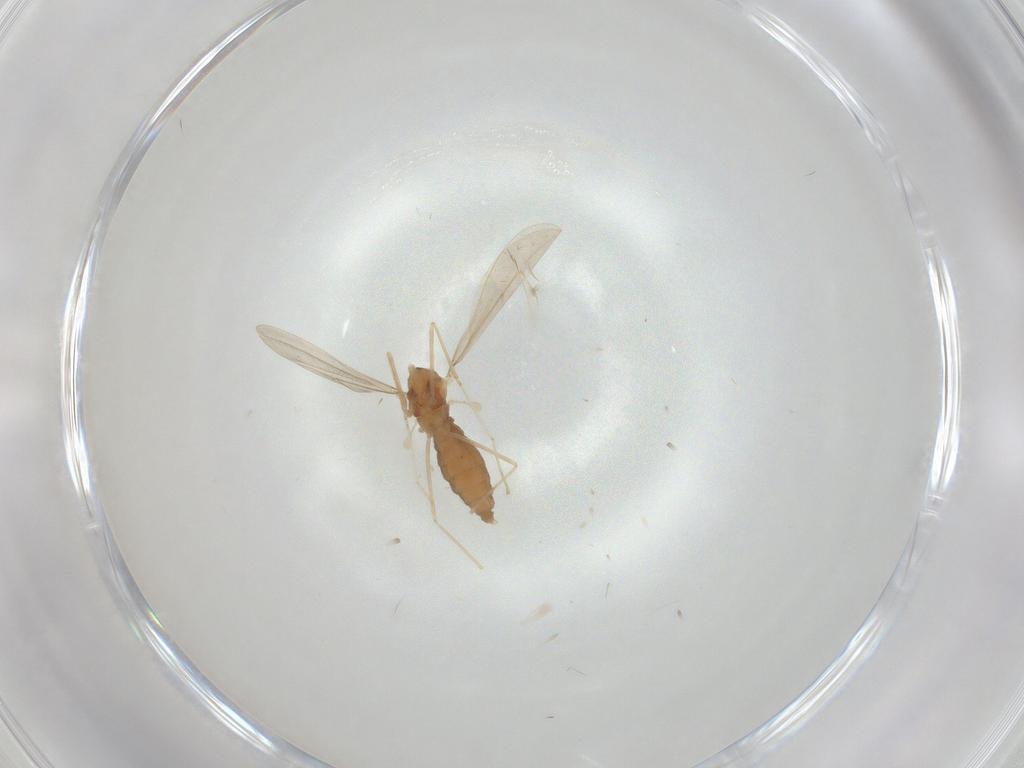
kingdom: Animalia
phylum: Arthropoda
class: Insecta
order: Diptera
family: Cecidomyiidae
